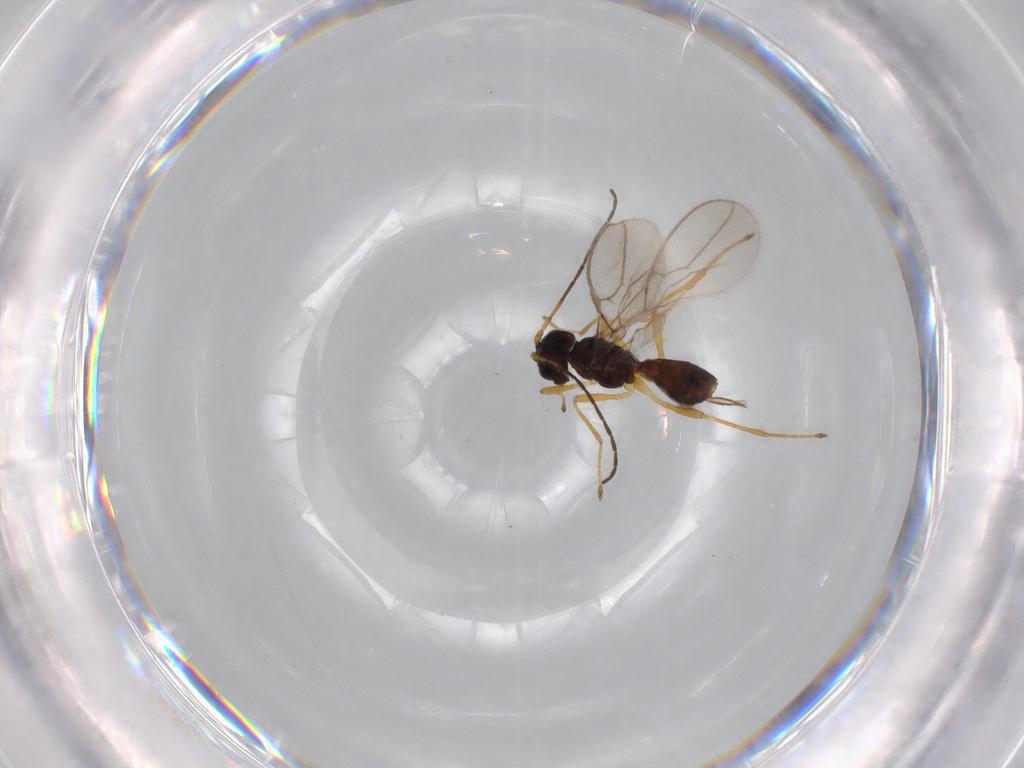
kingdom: Animalia
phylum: Arthropoda
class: Insecta
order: Hymenoptera
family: Braconidae
